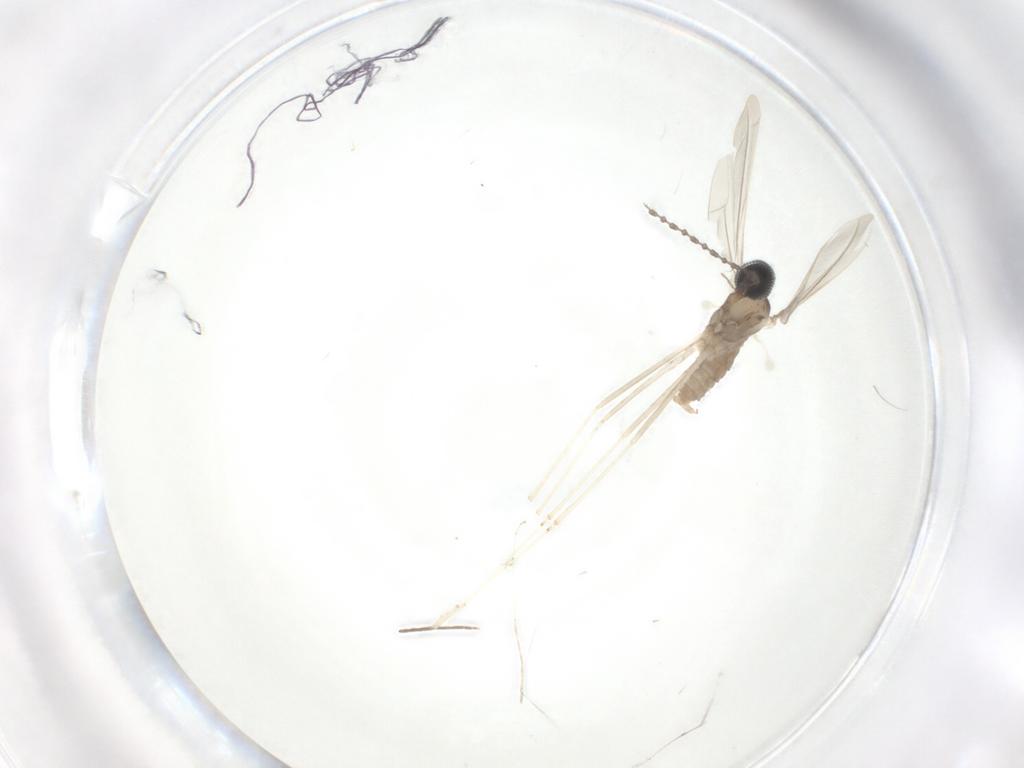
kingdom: Animalia
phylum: Arthropoda
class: Insecta
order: Diptera
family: Cecidomyiidae
